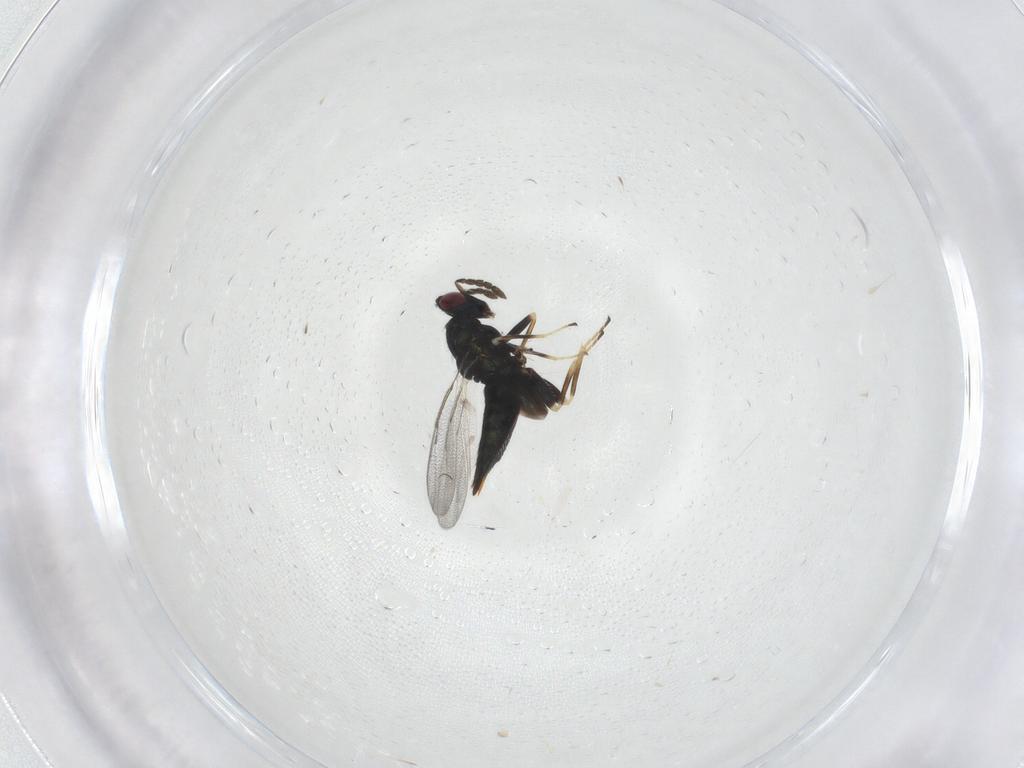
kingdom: Animalia
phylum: Arthropoda
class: Insecta
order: Hymenoptera
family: Eulophidae
